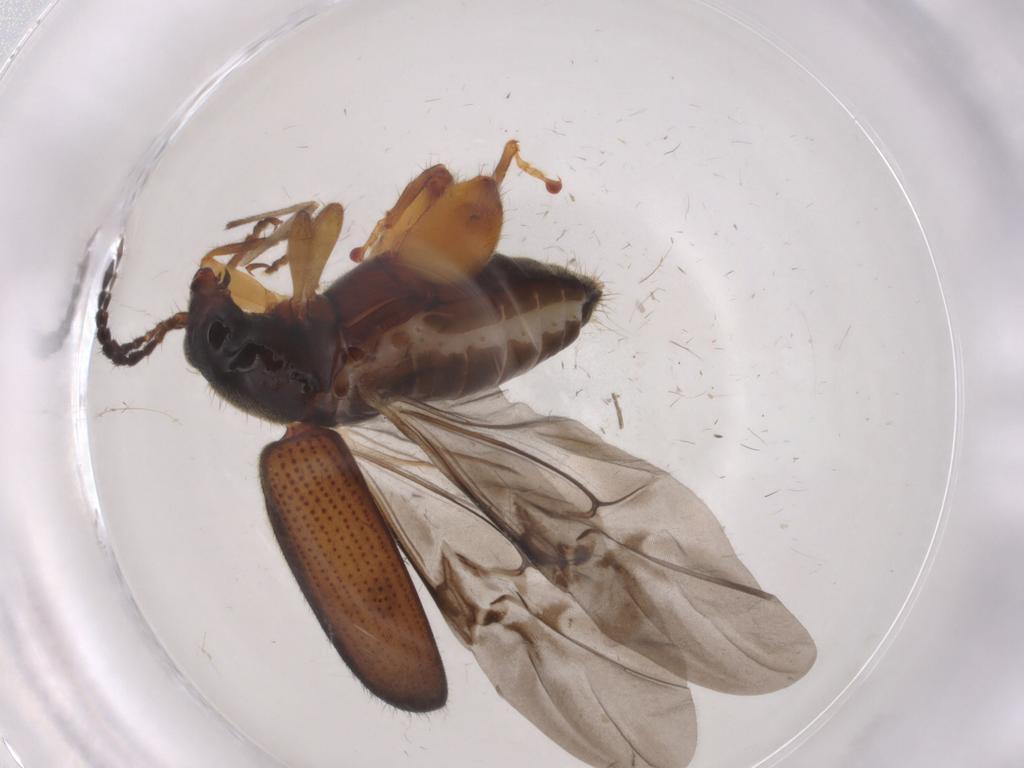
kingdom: Animalia
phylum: Arthropoda
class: Insecta
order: Coleoptera
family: Chrysomelidae
